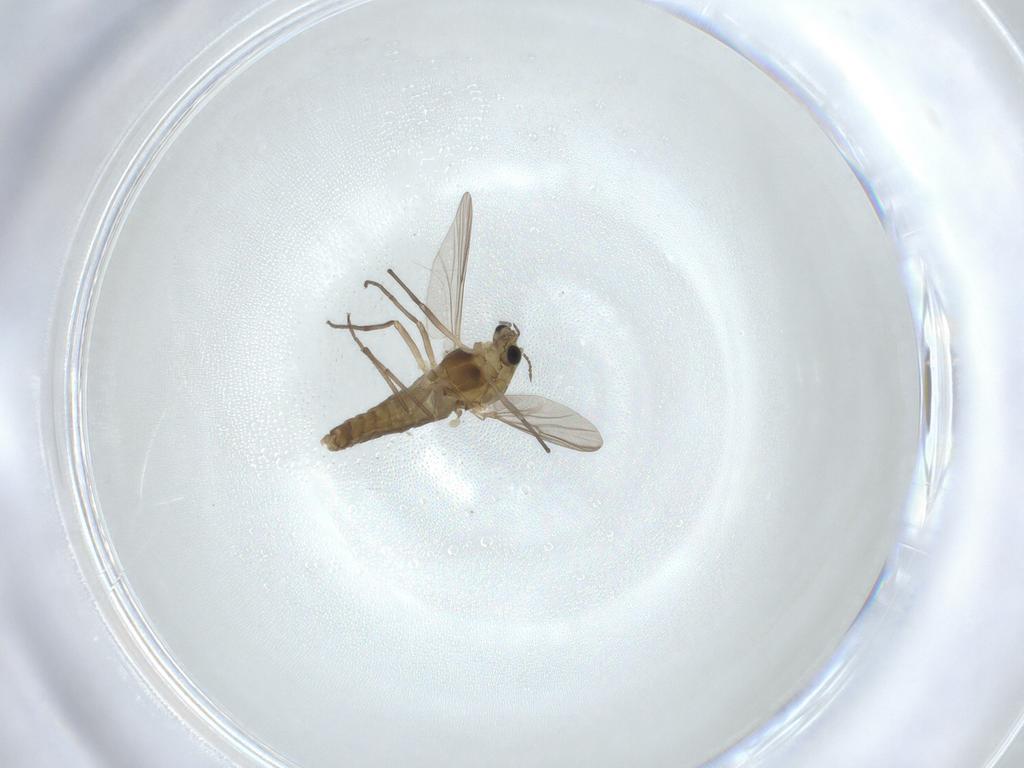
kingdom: Animalia
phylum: Arthropoda
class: Insecta
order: Diptera
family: Chironomidae
